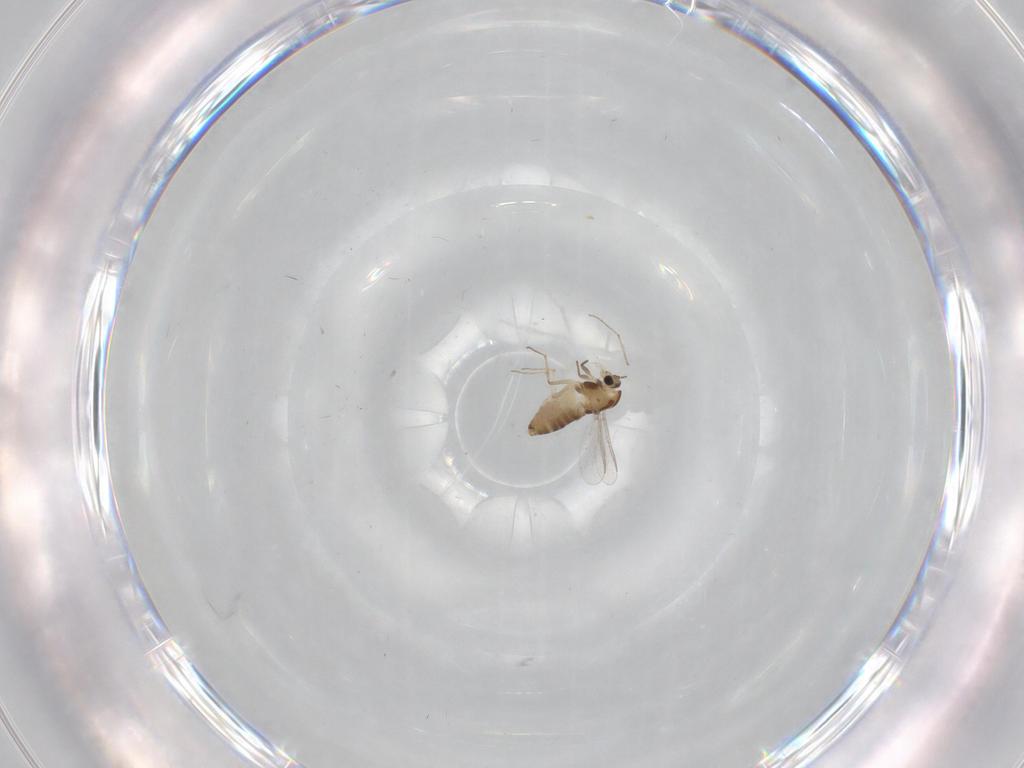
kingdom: Animalia
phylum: Arthropoda
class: Insecta
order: Diptera
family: Chironomidae
